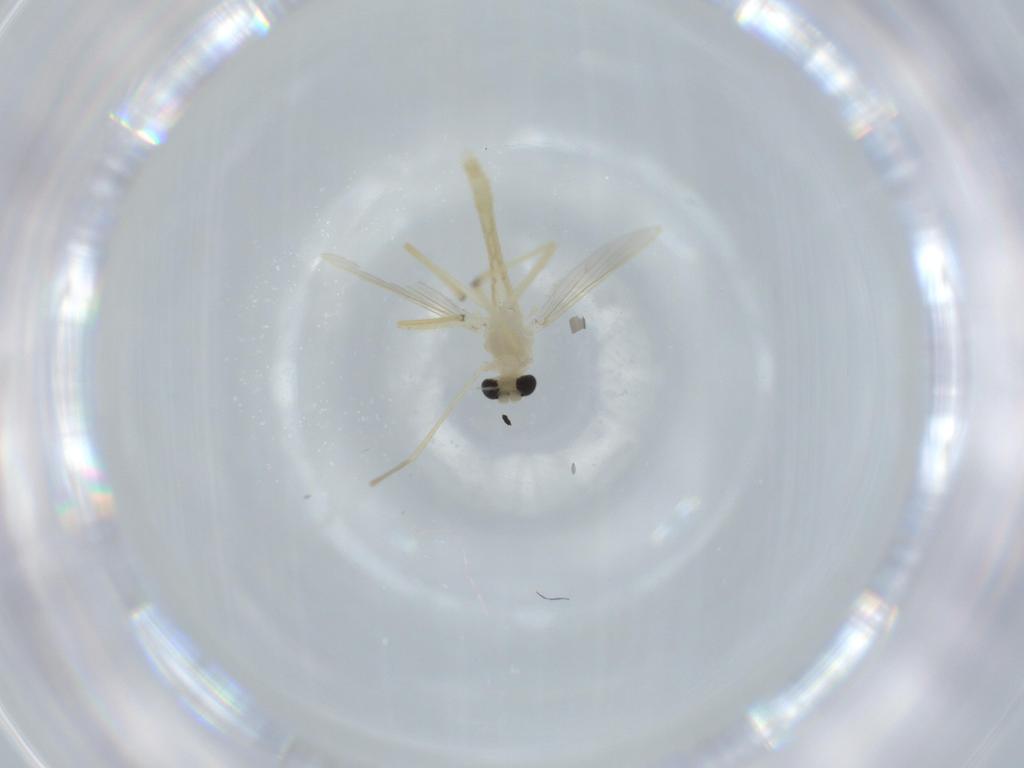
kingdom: Animalia
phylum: Arthropoda
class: Insecta
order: Diptera
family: Chironomidae
